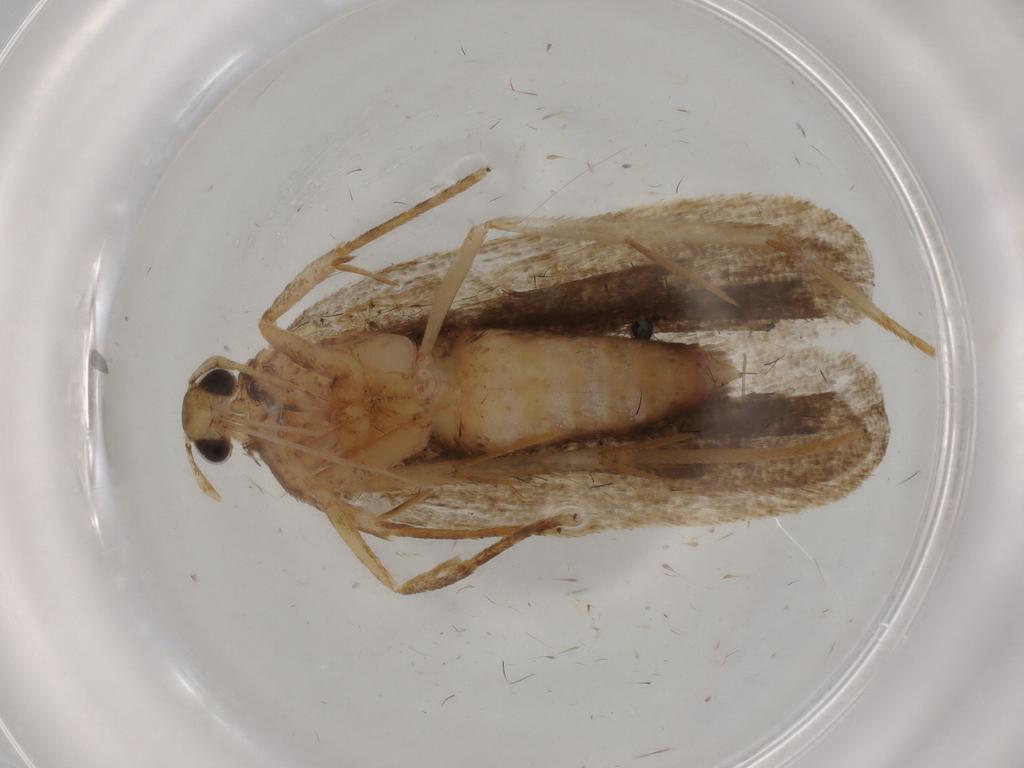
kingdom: Animalia
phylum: Arthropoda
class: Insecta
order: Lepidoptera
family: Autostichidae
